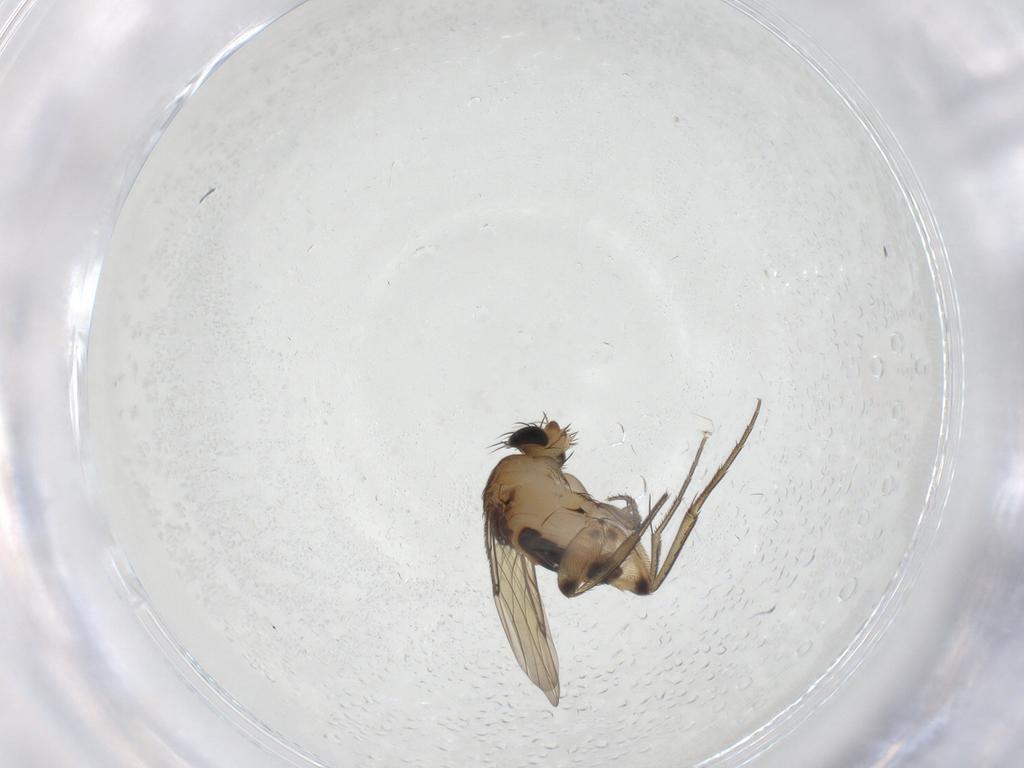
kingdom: Animalia
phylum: Arthropoda
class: Insecta
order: Diptera
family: Phoridae
